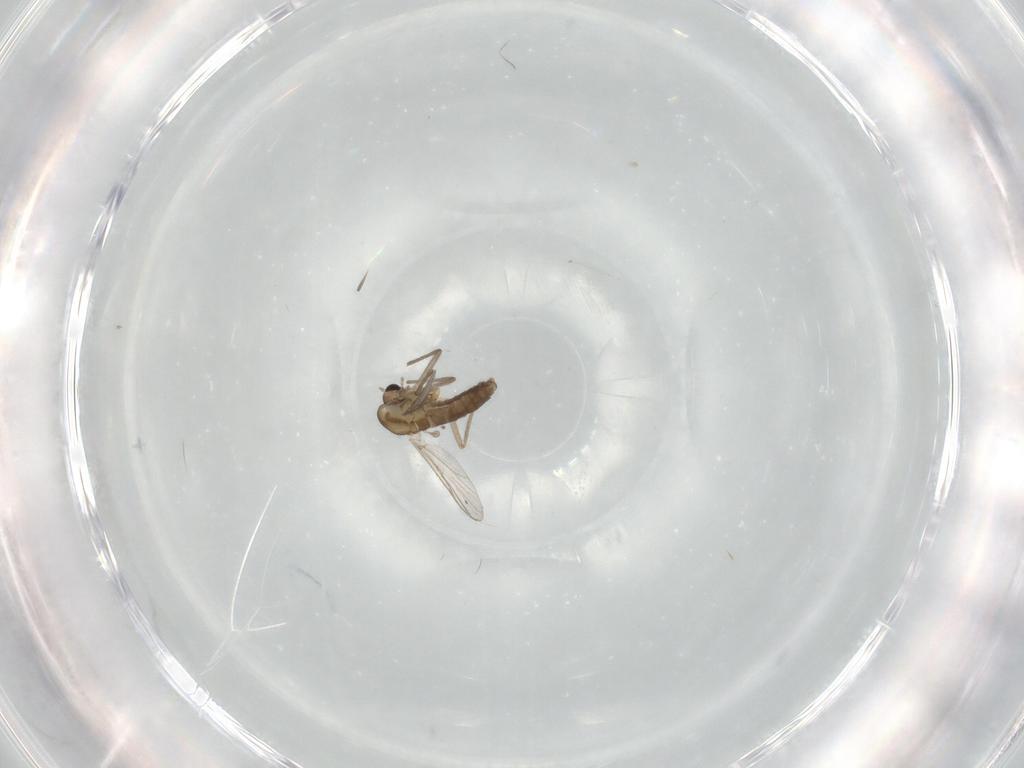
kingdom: Animalia
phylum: Arthropoda
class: Insecta
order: Diptera
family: Chironomidae
